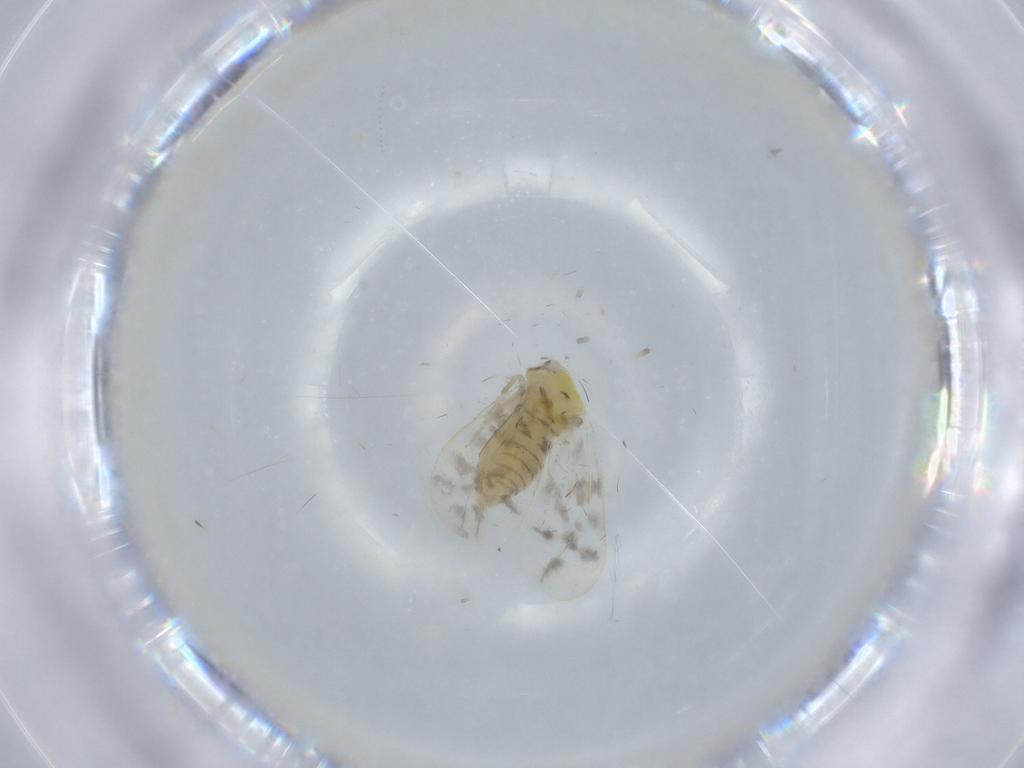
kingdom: Animalia
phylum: Arthropoda
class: Insecta
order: Hemiptera
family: Aleyrodidae
